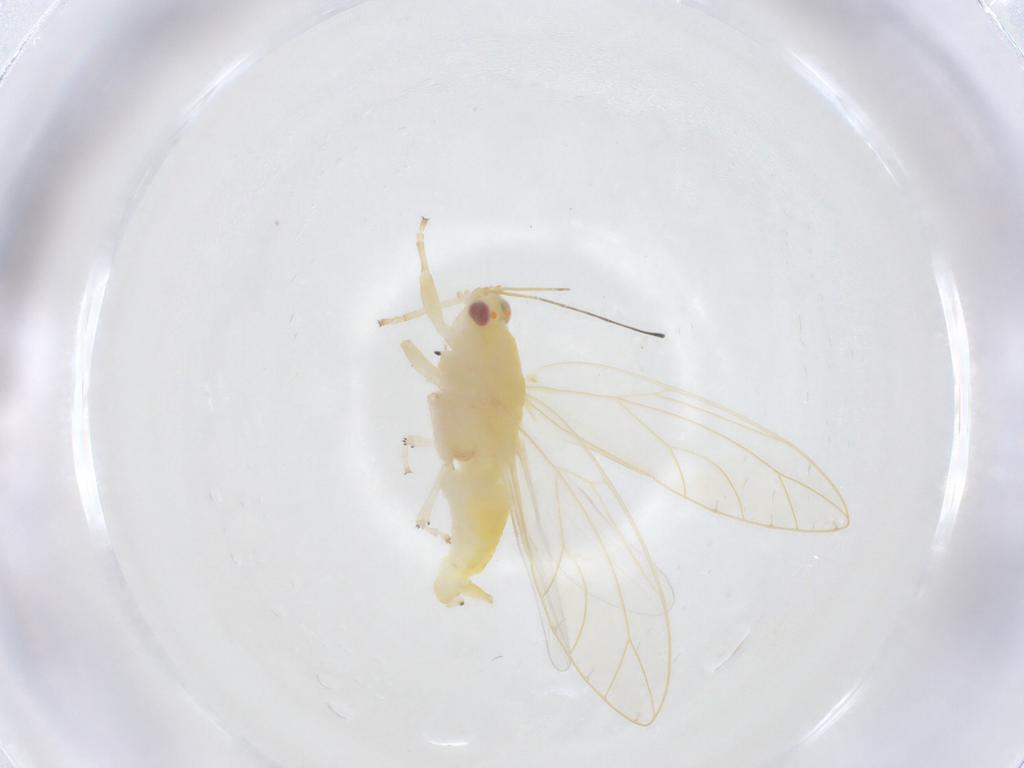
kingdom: Animalia
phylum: Arthropoda
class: Insecta
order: Hemiptera
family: Triozidae
